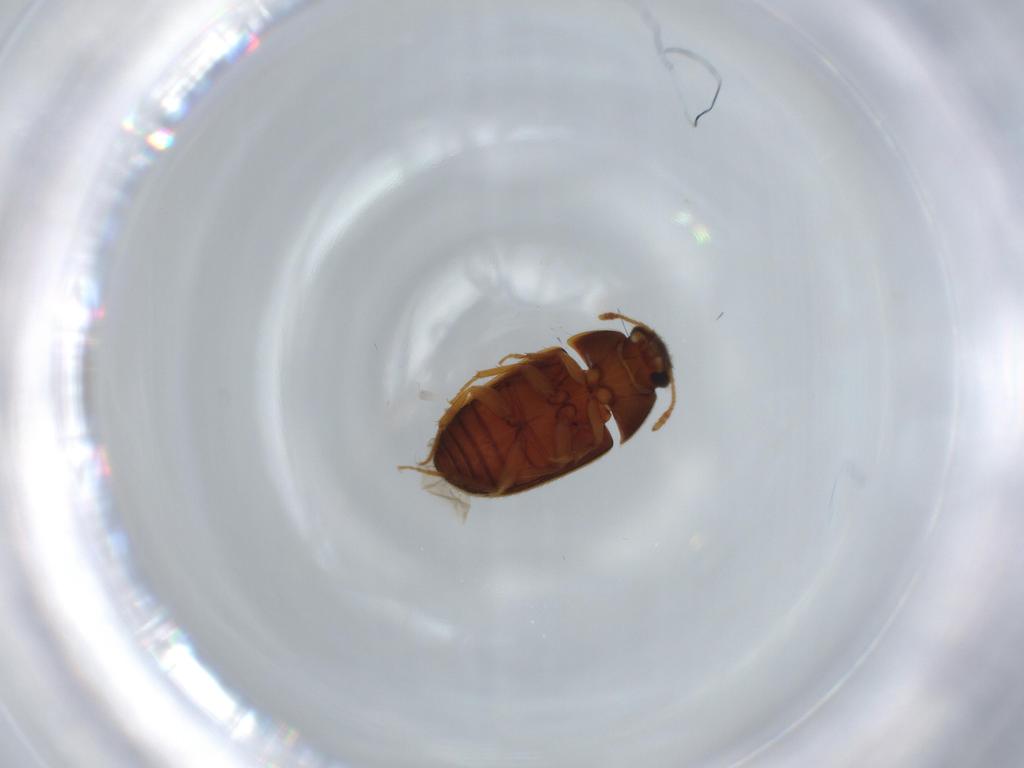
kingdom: Animalia
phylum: Arthropoda
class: Insecta
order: Coleoptera
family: Mycetophagidae
